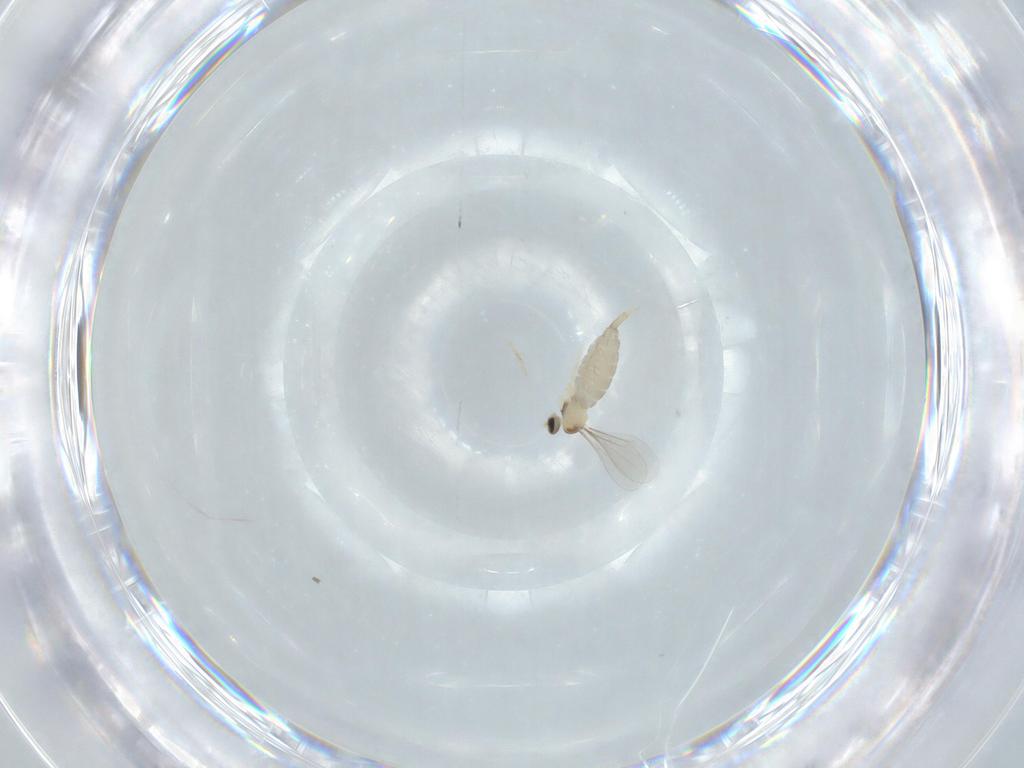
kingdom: Animalia
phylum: Arthropoda
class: Insecta
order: Diptera
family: Cecidomyiidae
